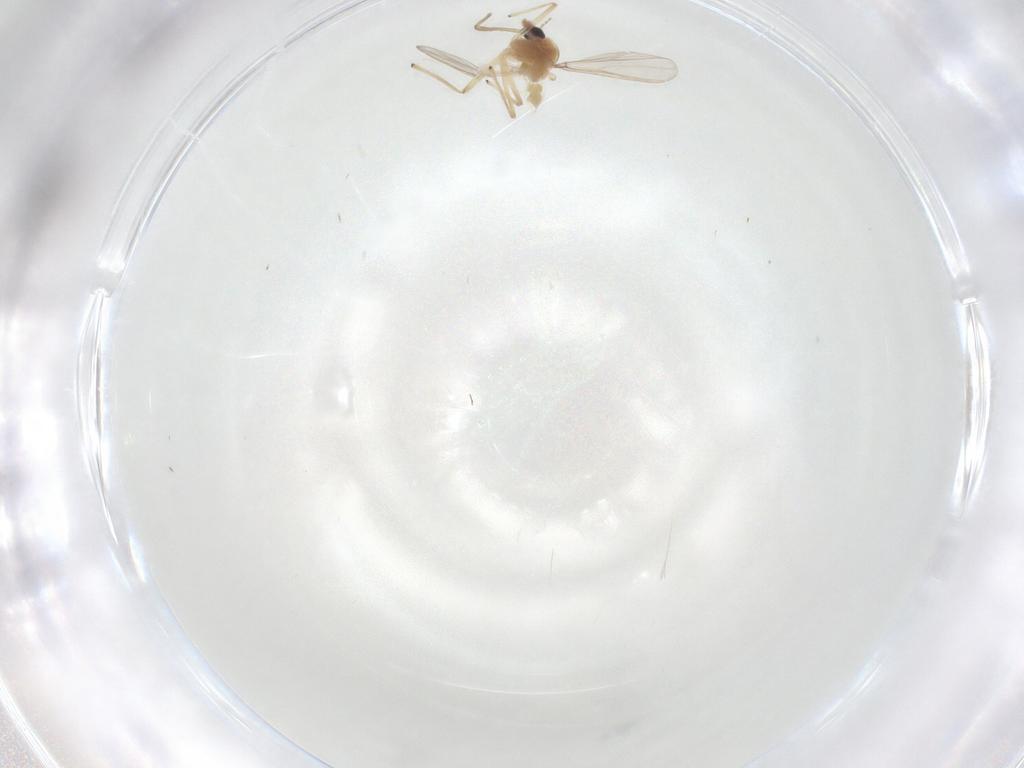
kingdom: Animalia
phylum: Arthropoda
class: Insecta
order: Diptera
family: Chironomidae
